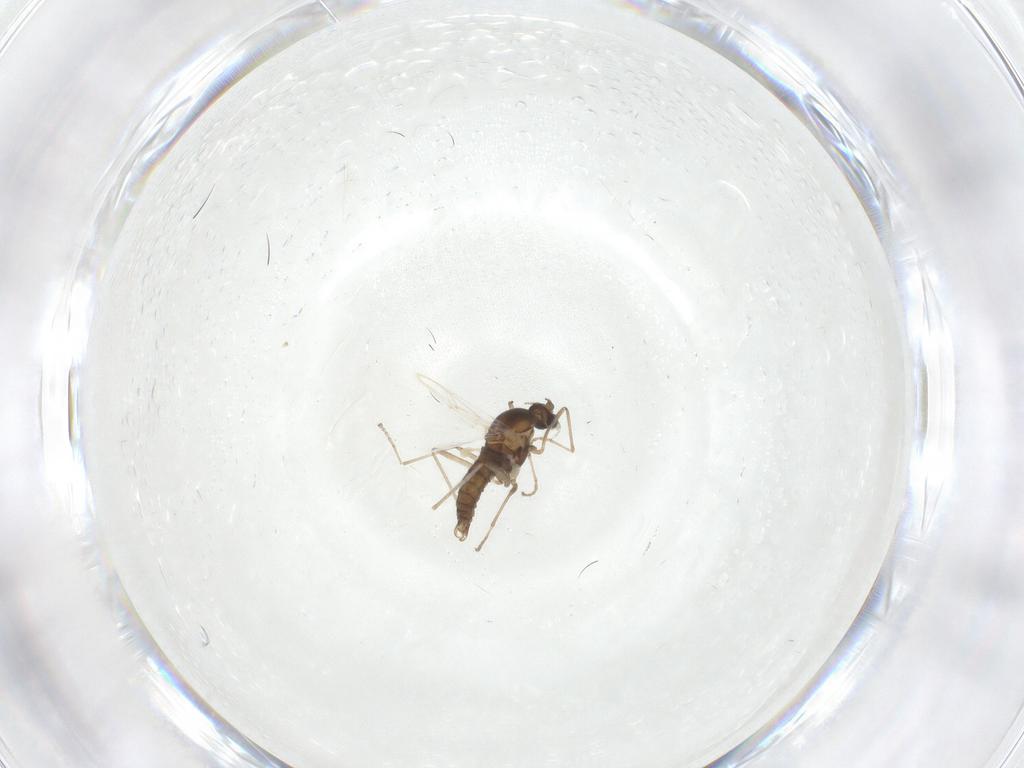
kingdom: Animalia
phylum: Arthropoda
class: Insecta
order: Diptera
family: Cecidomyiidae
